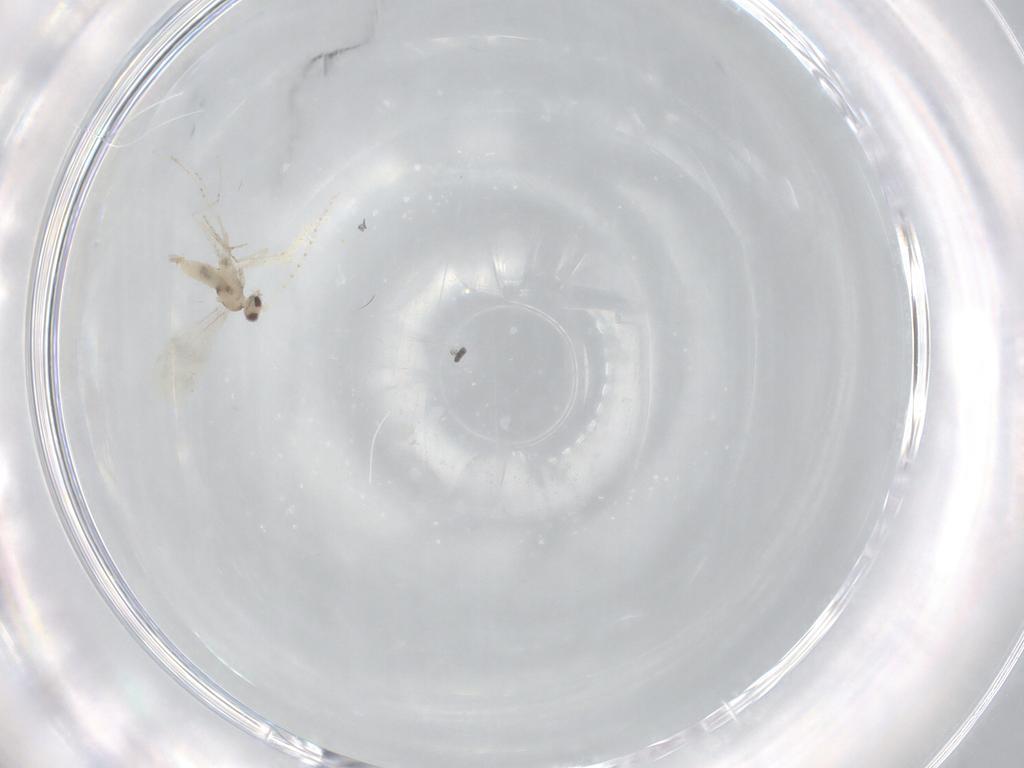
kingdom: Animalia
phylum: Arthropoda
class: Insecta
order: Diptera
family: Cecidomyiidae
